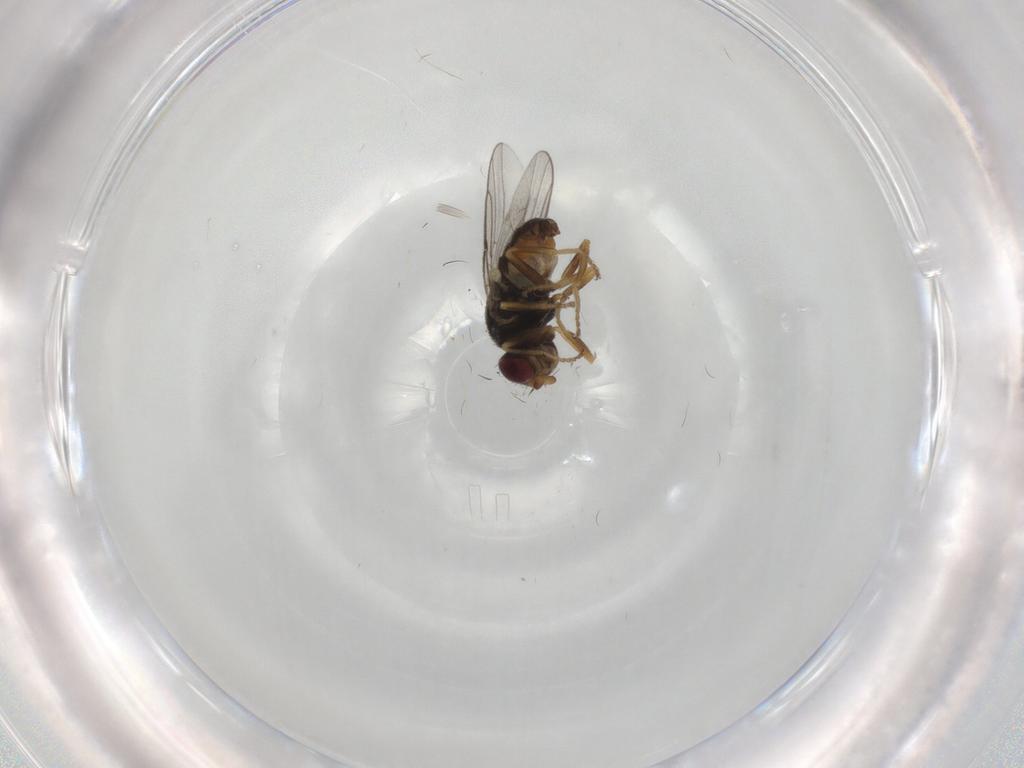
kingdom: Animalia
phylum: Arthropoda
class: Insecta
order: Diptera
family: Chloropidae
